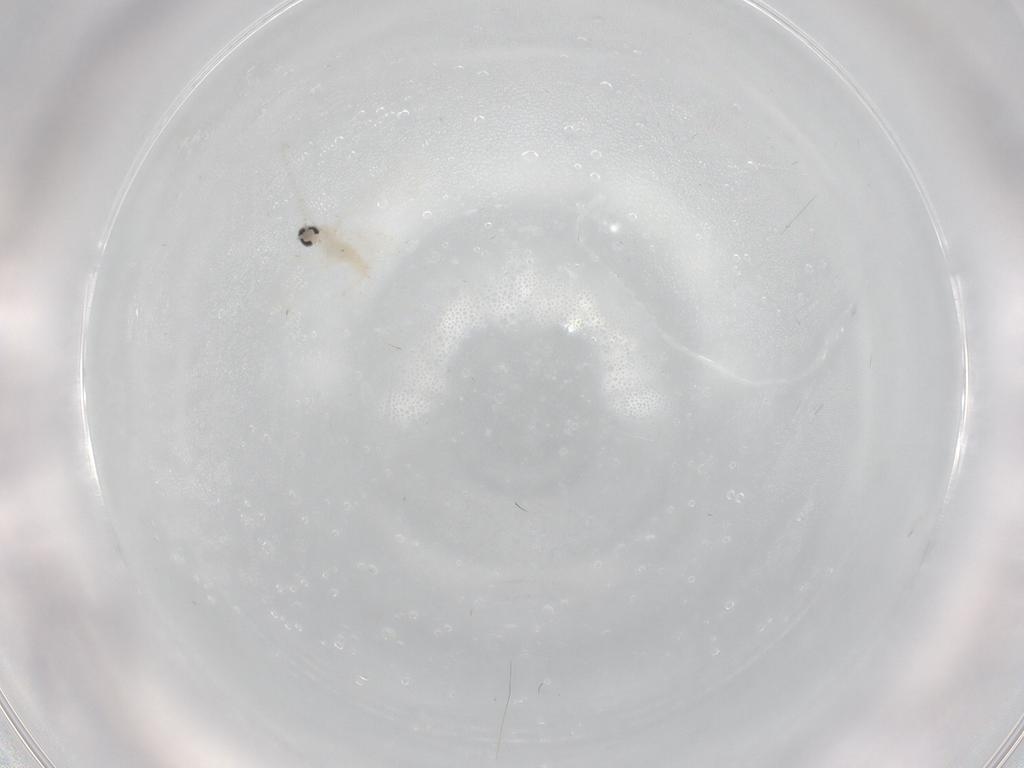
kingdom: Animalia
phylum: Arthropoda
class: Insecta
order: Diptera
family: Cecidomyiidae
